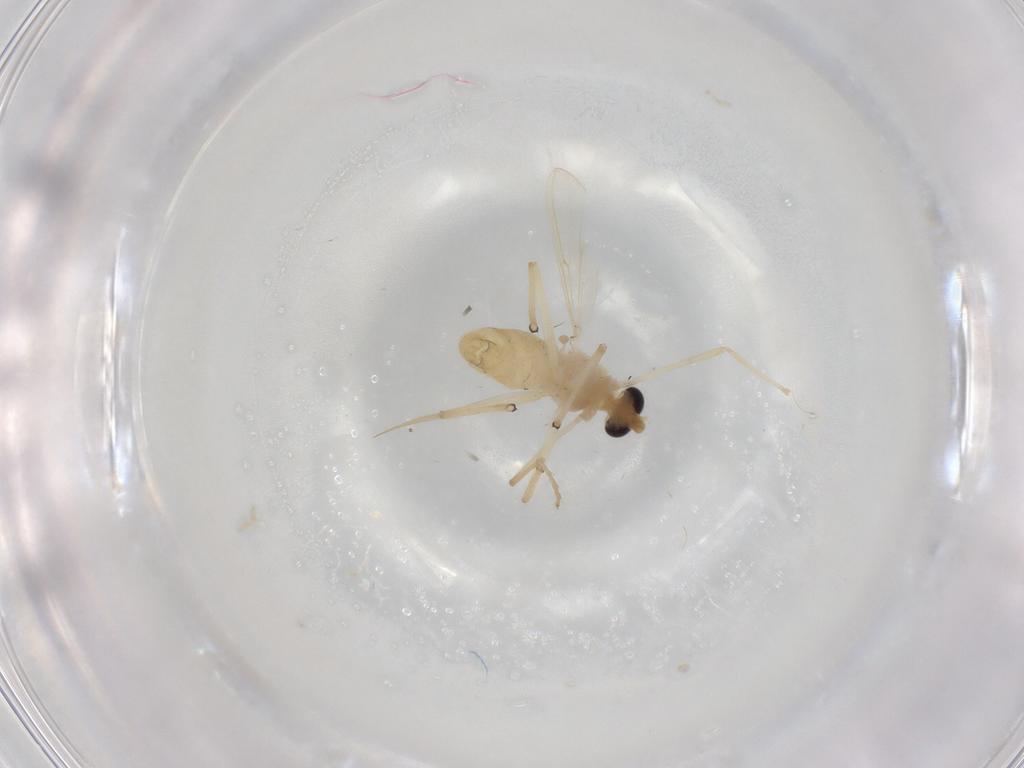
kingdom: Animalia
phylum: Arthropoda
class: Insecta
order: Diptera
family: Chironomidae
